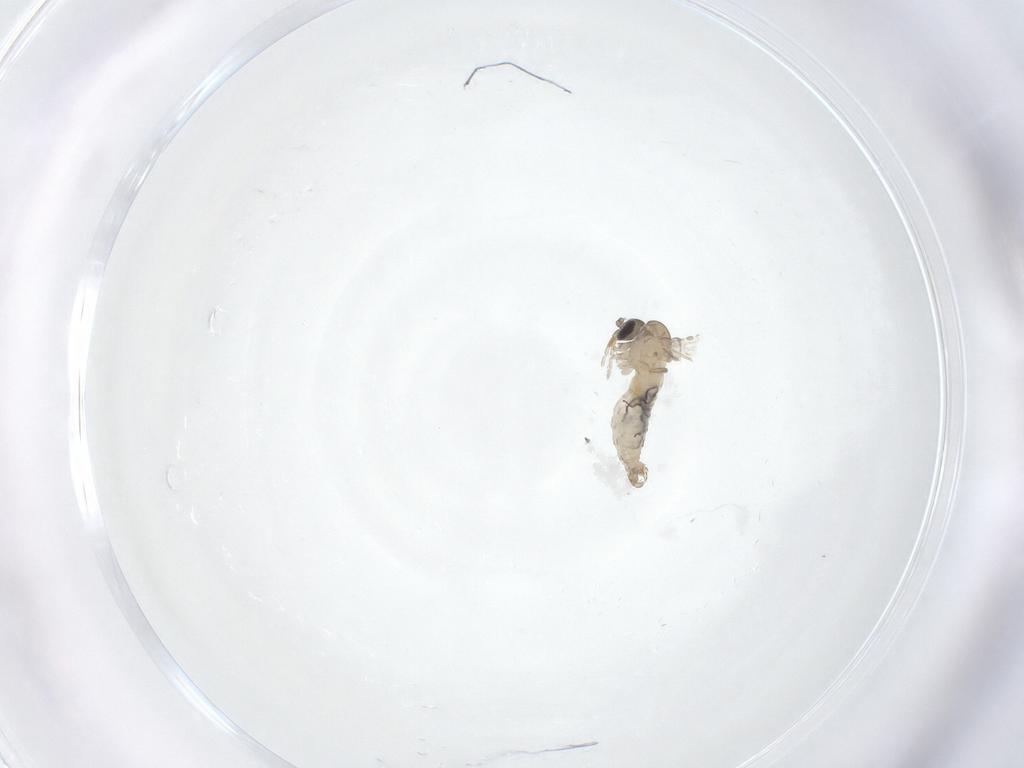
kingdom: Animalia
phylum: Arthropoda
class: Insecta
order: Diptera
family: Psychodidae
